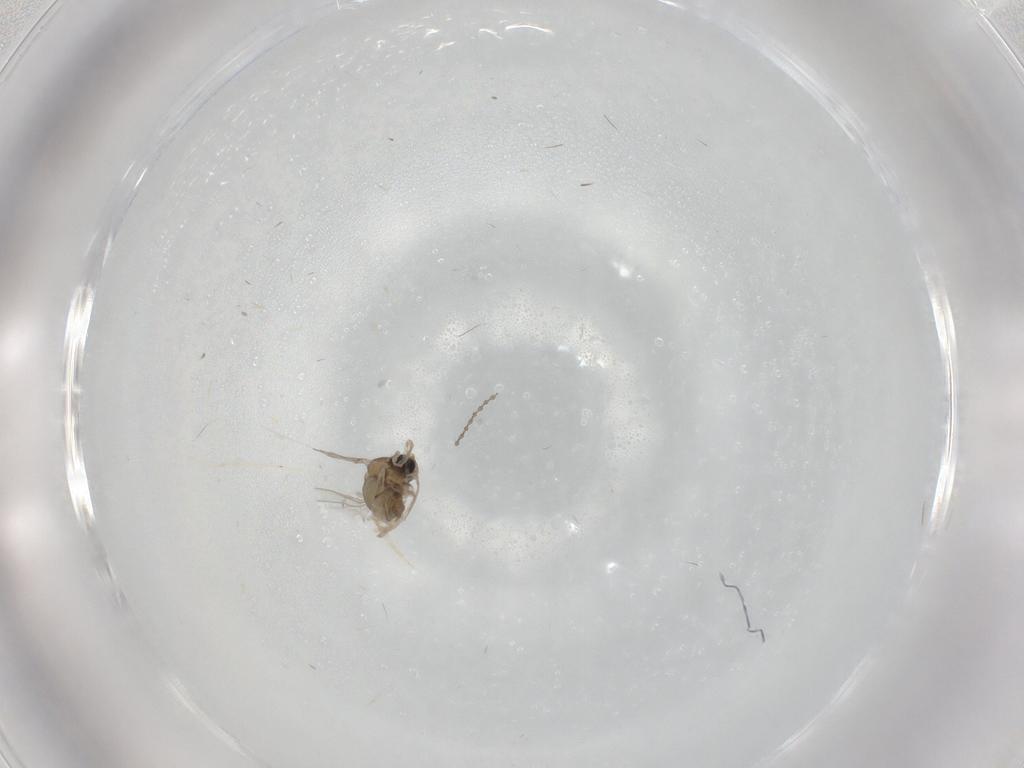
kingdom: Animalia
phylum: Arthropoda
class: Insecta
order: Diptera
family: Cecidomyiidae
